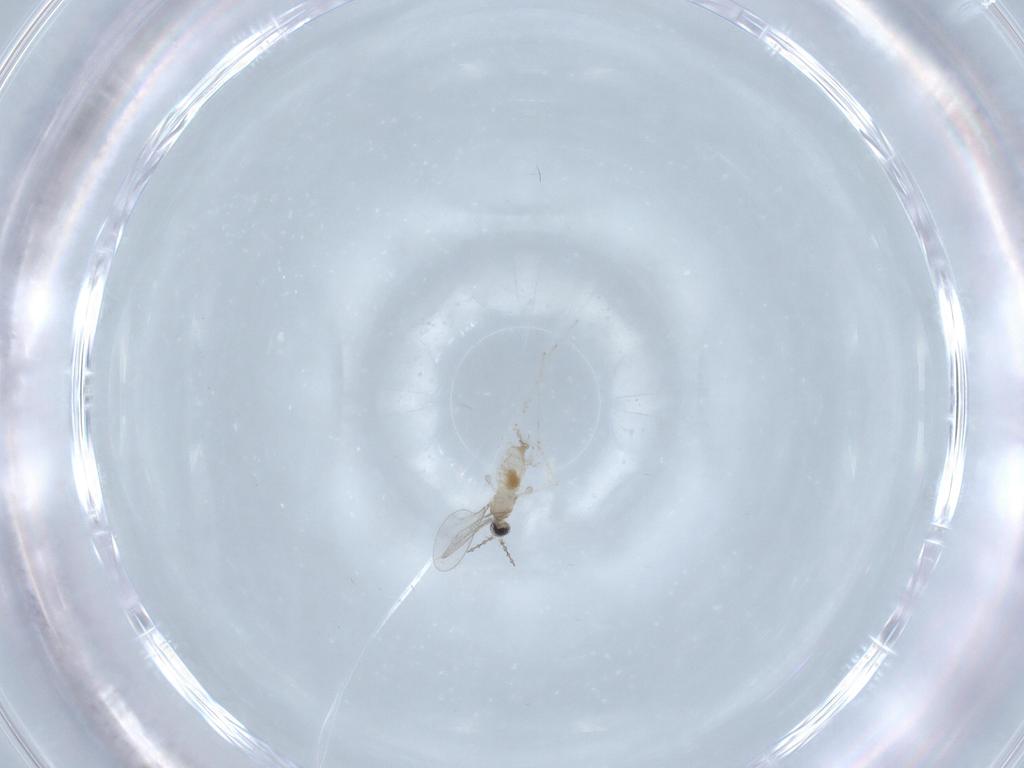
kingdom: Animalia
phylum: Arthropoda
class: Insecta
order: Diptera
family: Cecidomyiidae
